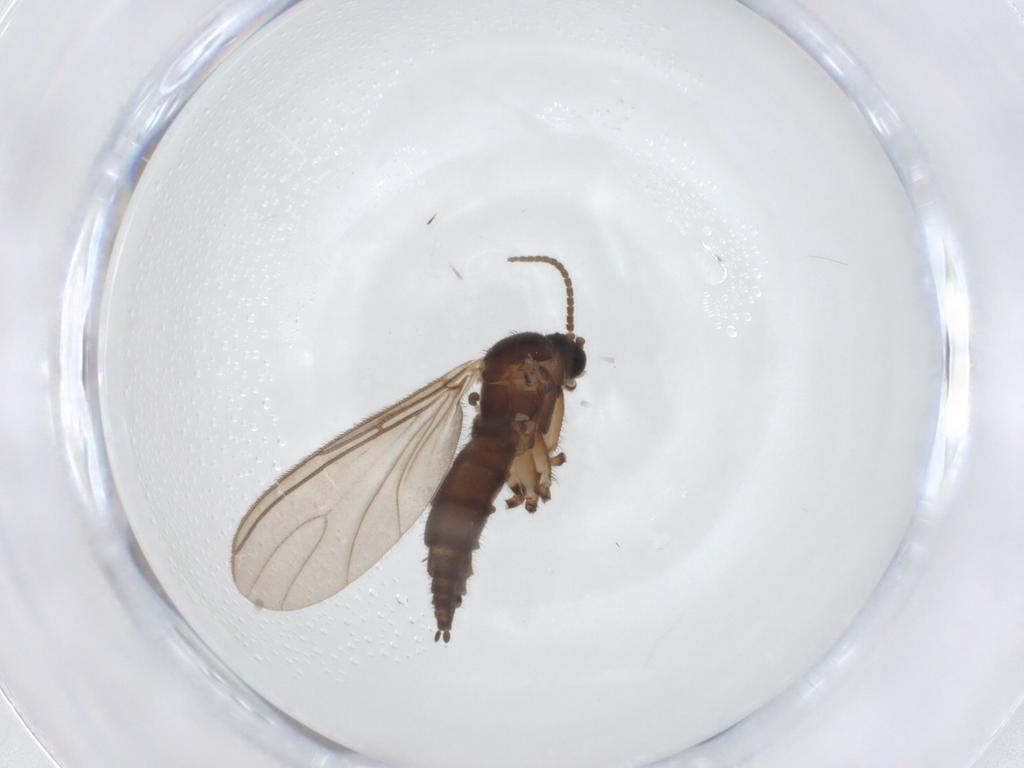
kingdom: Animalia
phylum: Arthropoda
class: Insecta
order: Diptera
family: Sciaridae
